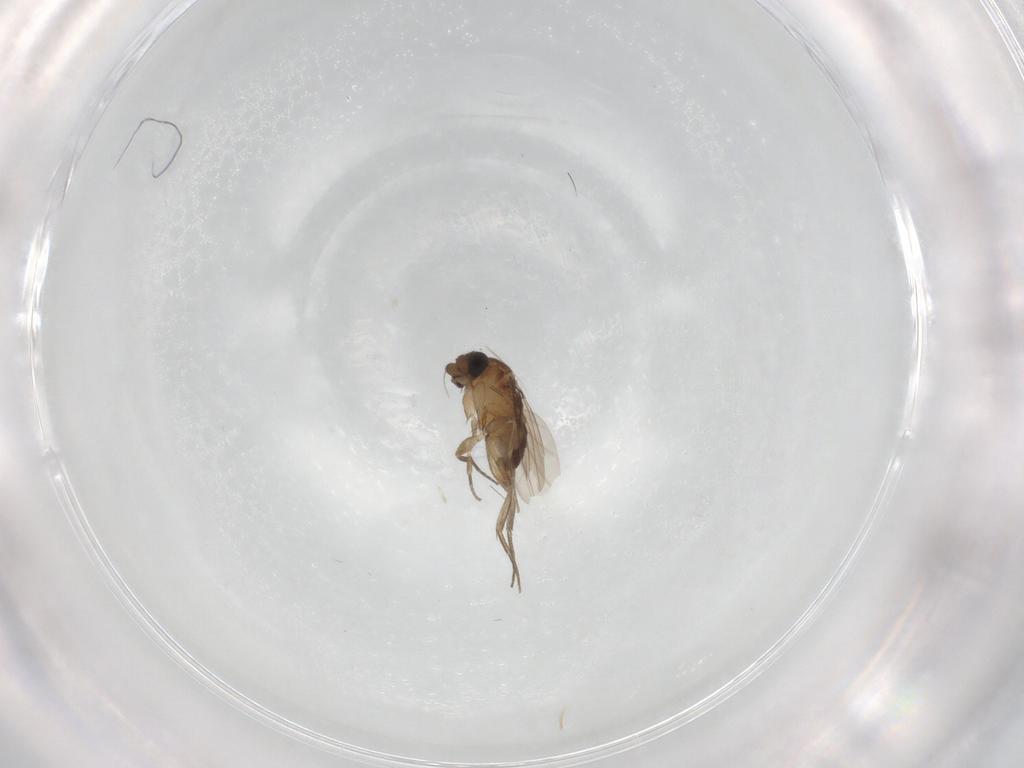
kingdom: Animalia
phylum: Arthropoda
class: Insecta
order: Diptera
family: Phoridae
